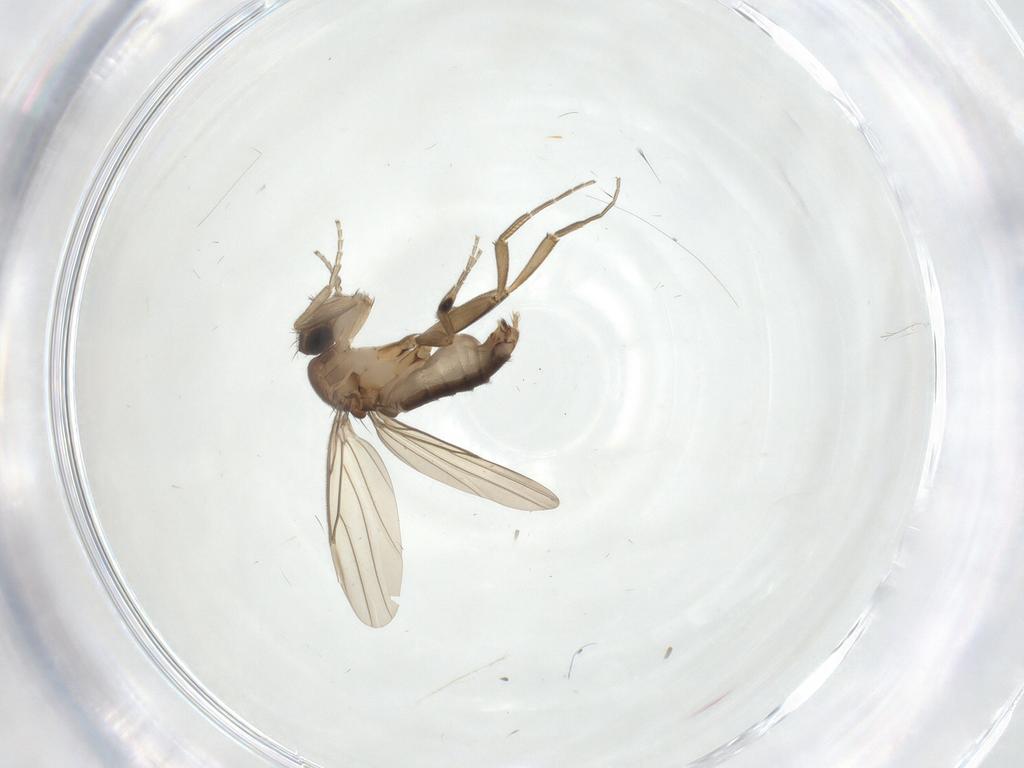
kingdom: Animalia
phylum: Arthropoda
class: Insecta
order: Diptera
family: Phoridae
